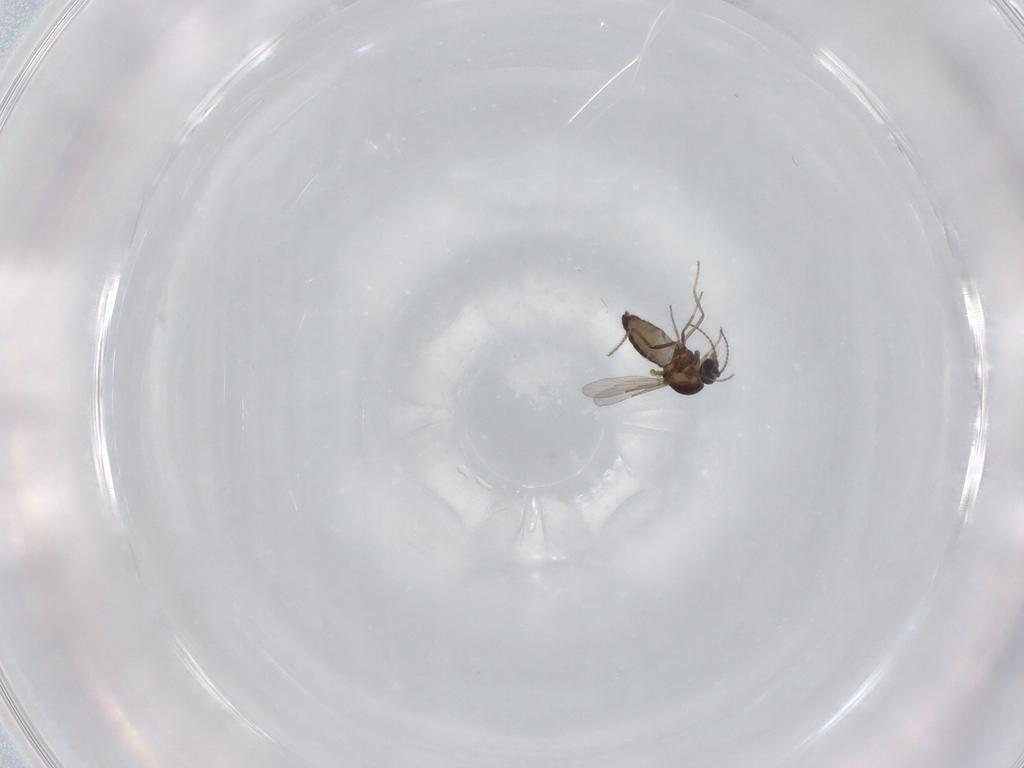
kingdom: Animalia
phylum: Arthropoda
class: Insecta
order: Diptera
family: Ceratopogonidae
